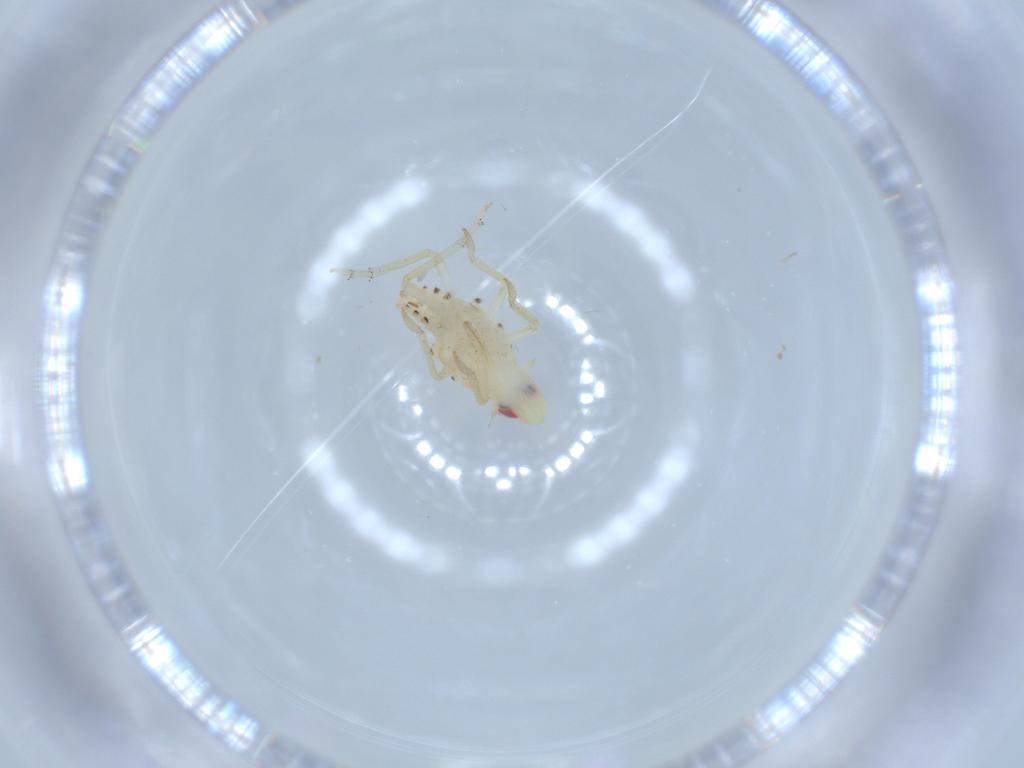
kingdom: Animalia
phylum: Arthropoda
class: Insecta
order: Hemiptera
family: Tropiduchidae
